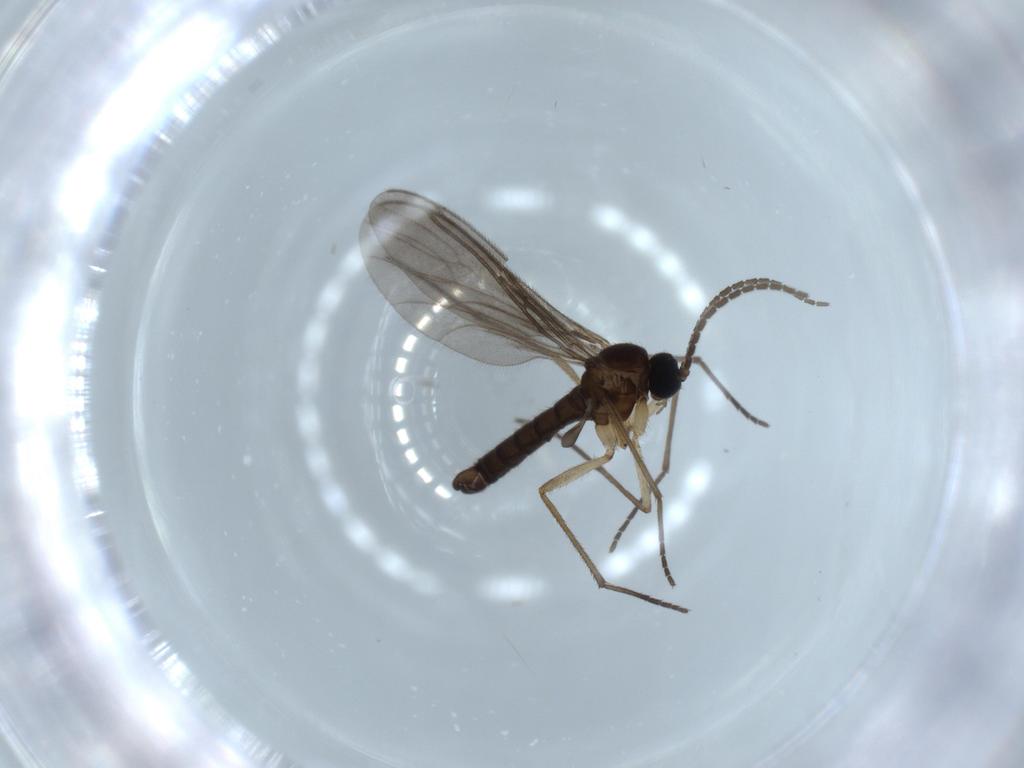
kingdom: Animalia
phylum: Arthropoda
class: Insecta
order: Diptera
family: Sciaridae
